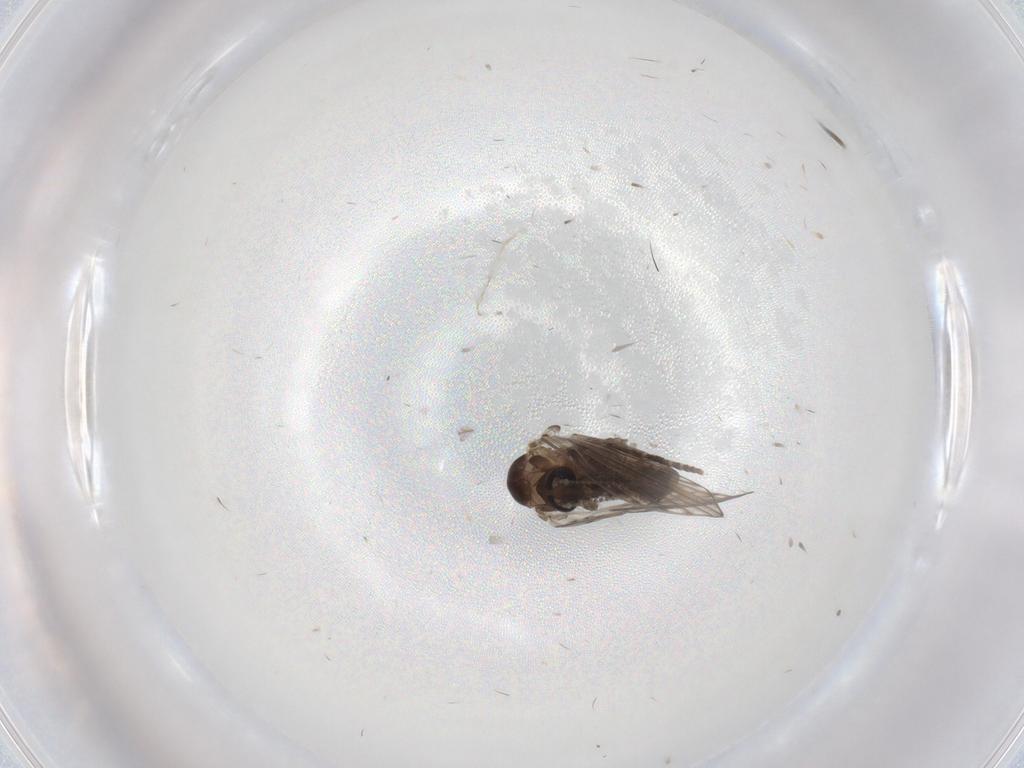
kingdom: Animalia
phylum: Arthropoda
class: Insecta
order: Diptera
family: Psychodidae
